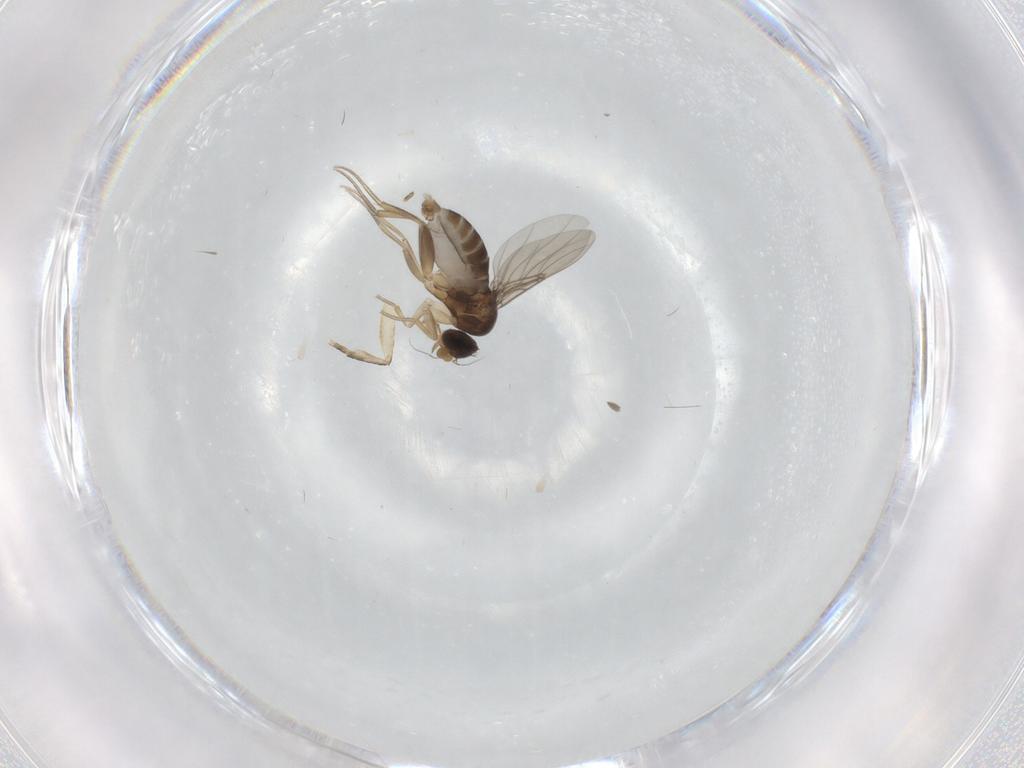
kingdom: Animalia
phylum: Arthropoda
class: Insecta
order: Diptera
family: Phoridae
